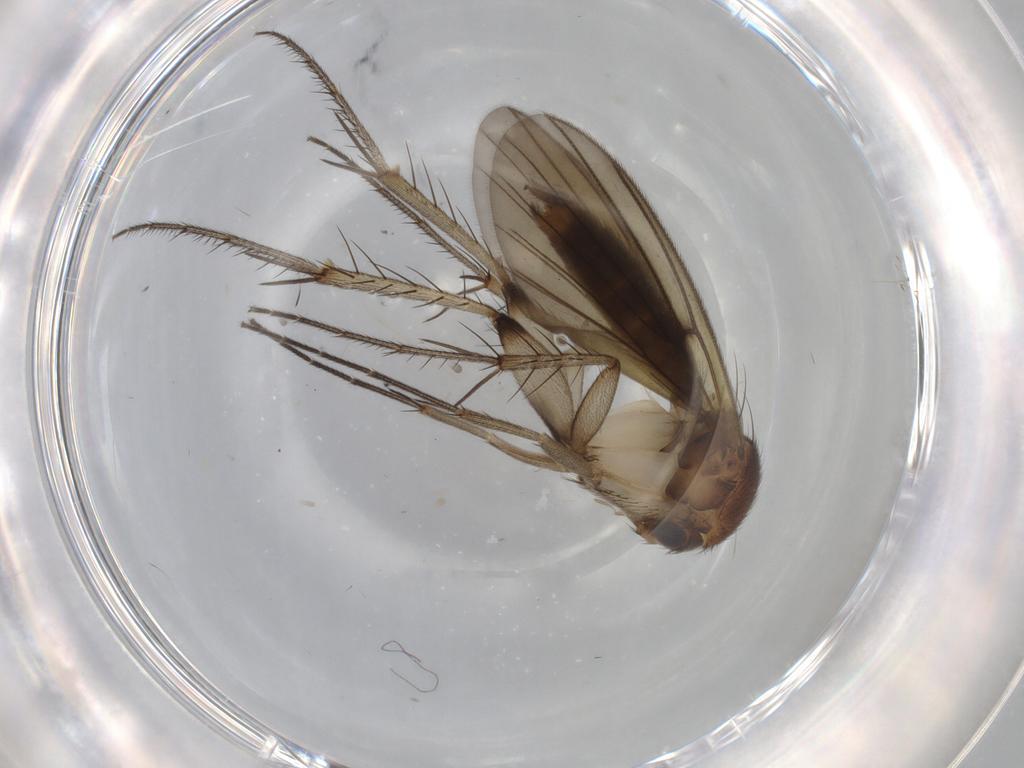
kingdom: Animalia
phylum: Arthropoda
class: Insecta
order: Diptera
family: Mycetophilidae
